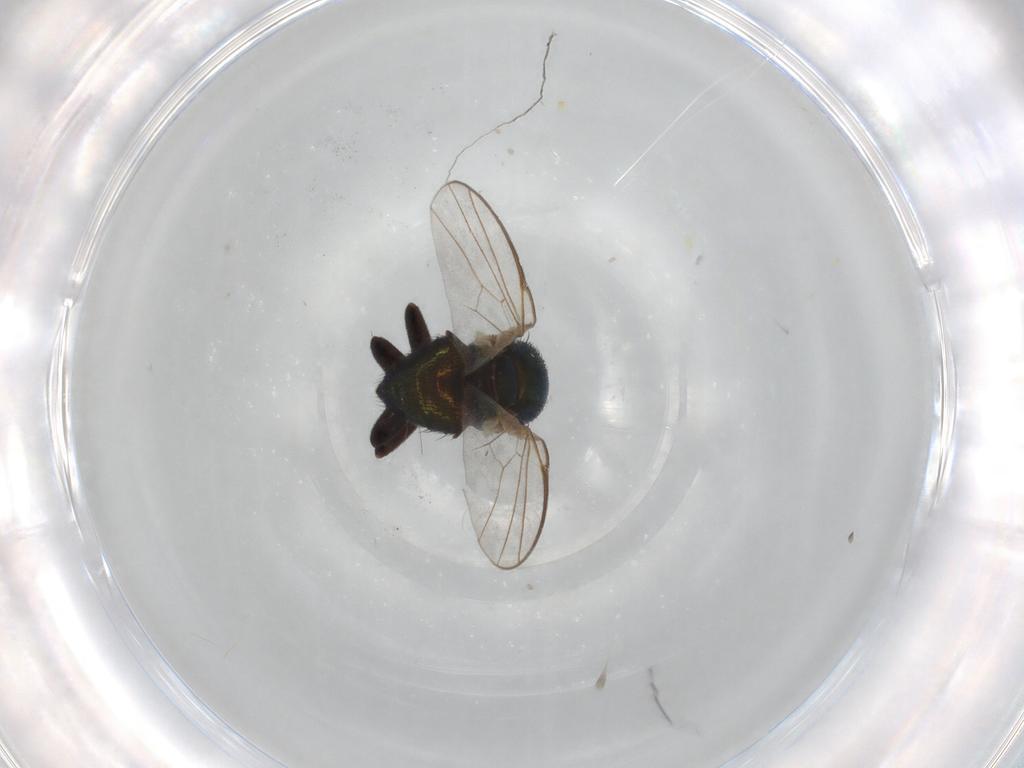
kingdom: Animalia
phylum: Arthropoda
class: Insecta
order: Diptera
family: Agromyzidae
